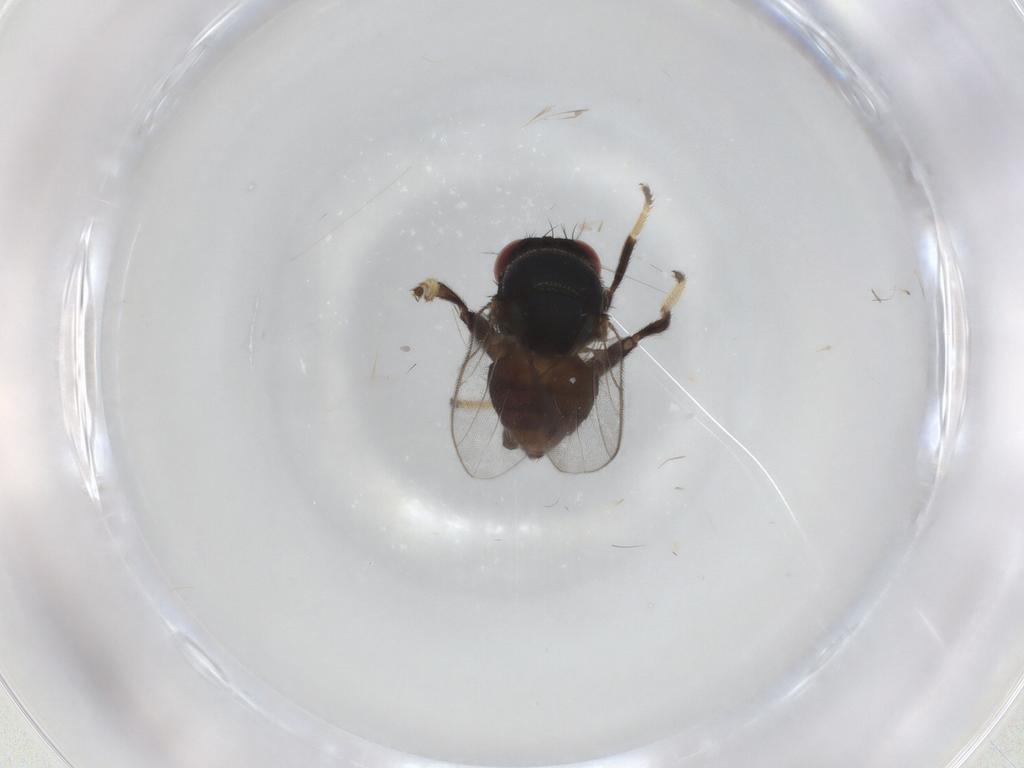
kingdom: Animalia
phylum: Arthropoda
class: Insecta
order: Diptera
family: Chloropidae
